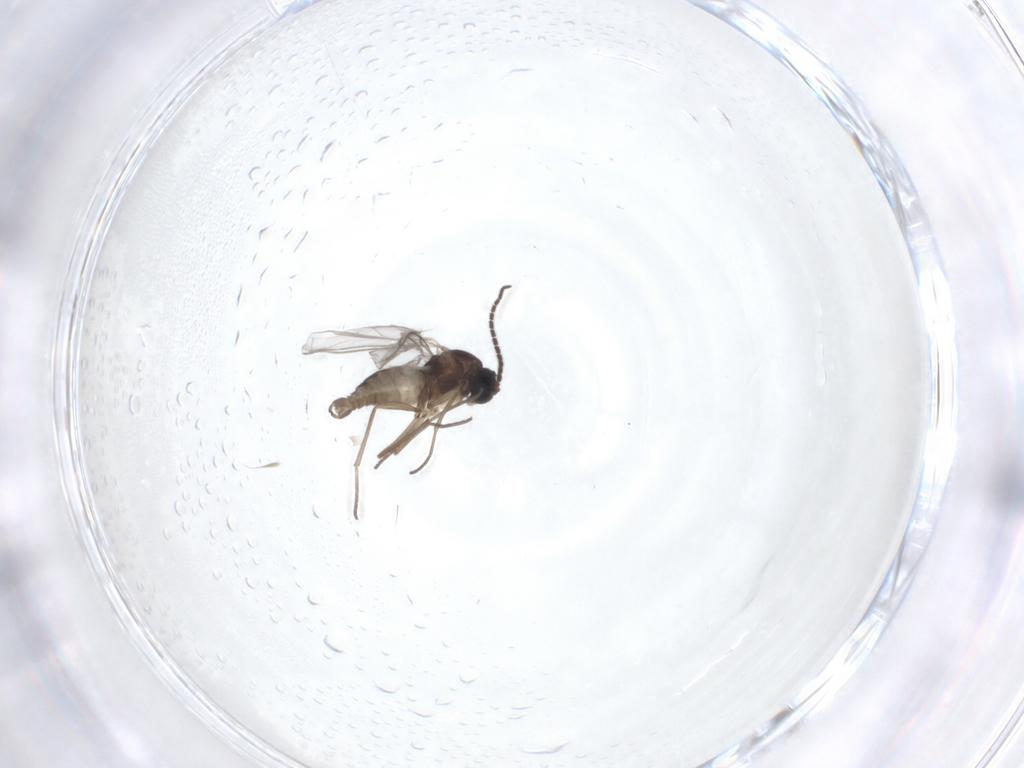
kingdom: Animalia
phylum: Arthropoda
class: Insecta
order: Diptera
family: Sciaridae
